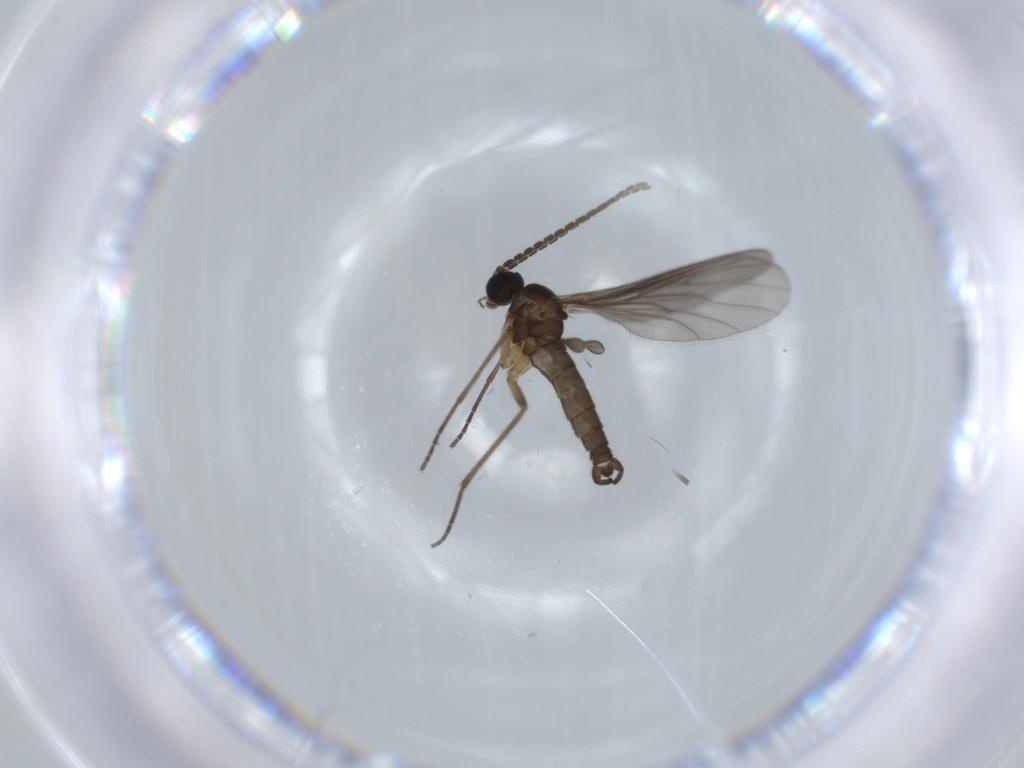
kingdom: Animalia
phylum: Arthropoda
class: Insecta
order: Diptera
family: Sciaridae
